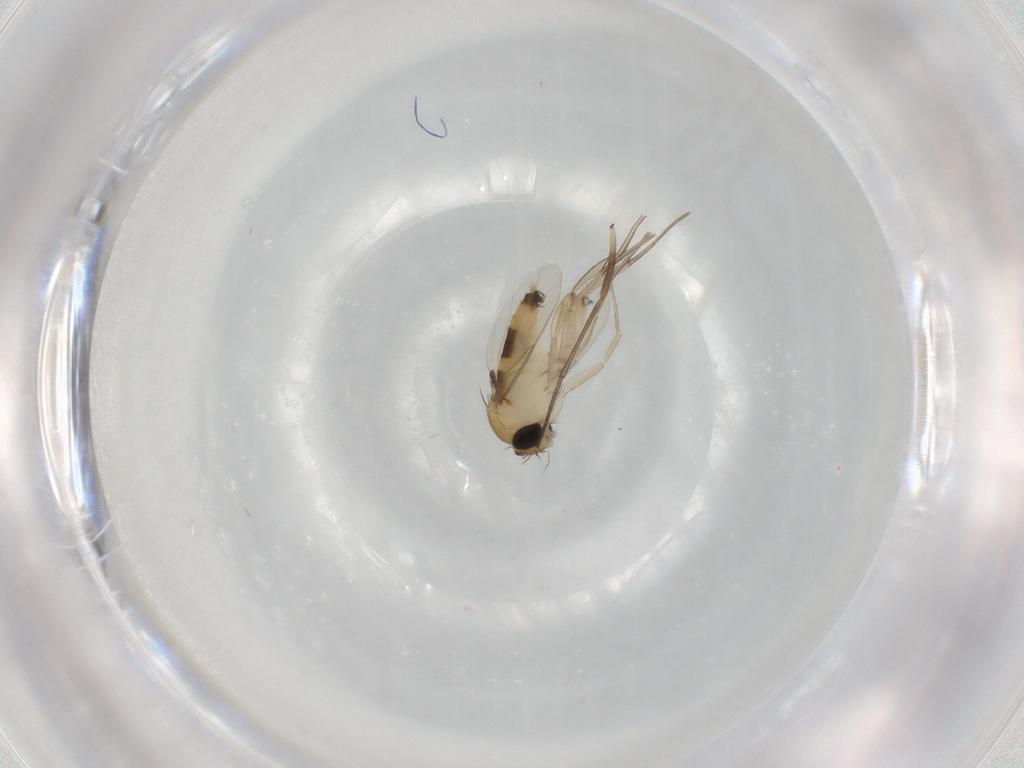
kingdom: Animalia
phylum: Arthropoda
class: Insecta
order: Diptera
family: Sciaridae
